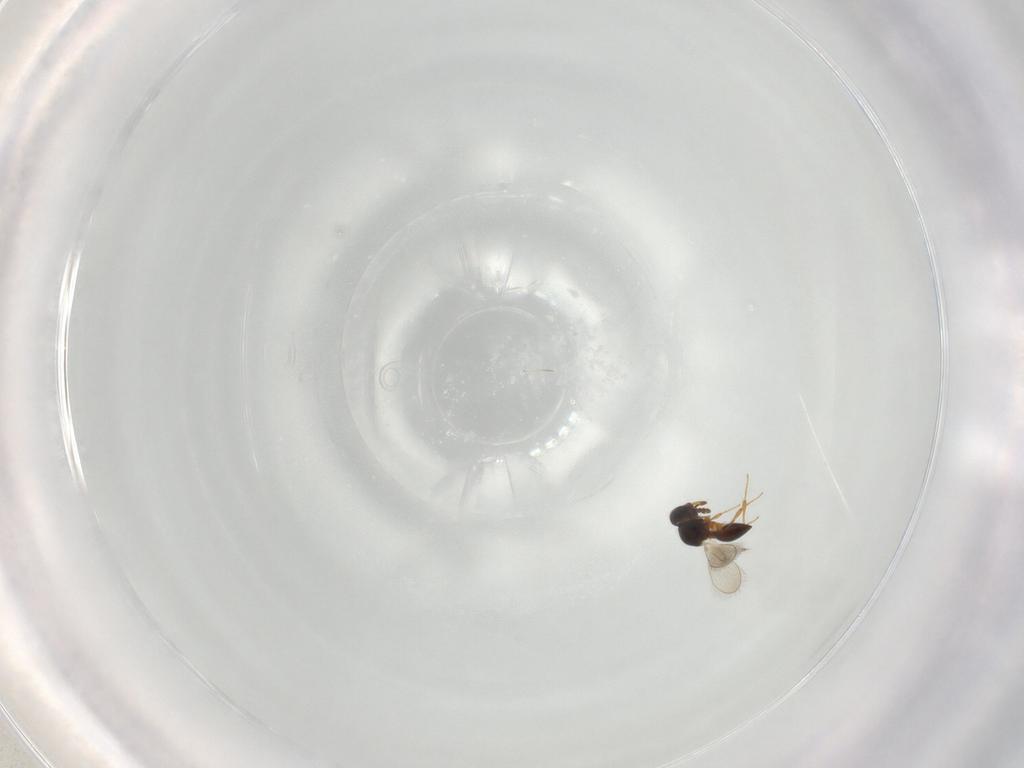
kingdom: Animalia
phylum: Arthropoda
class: Insecta
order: Hymenoptera
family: Platygastridae
